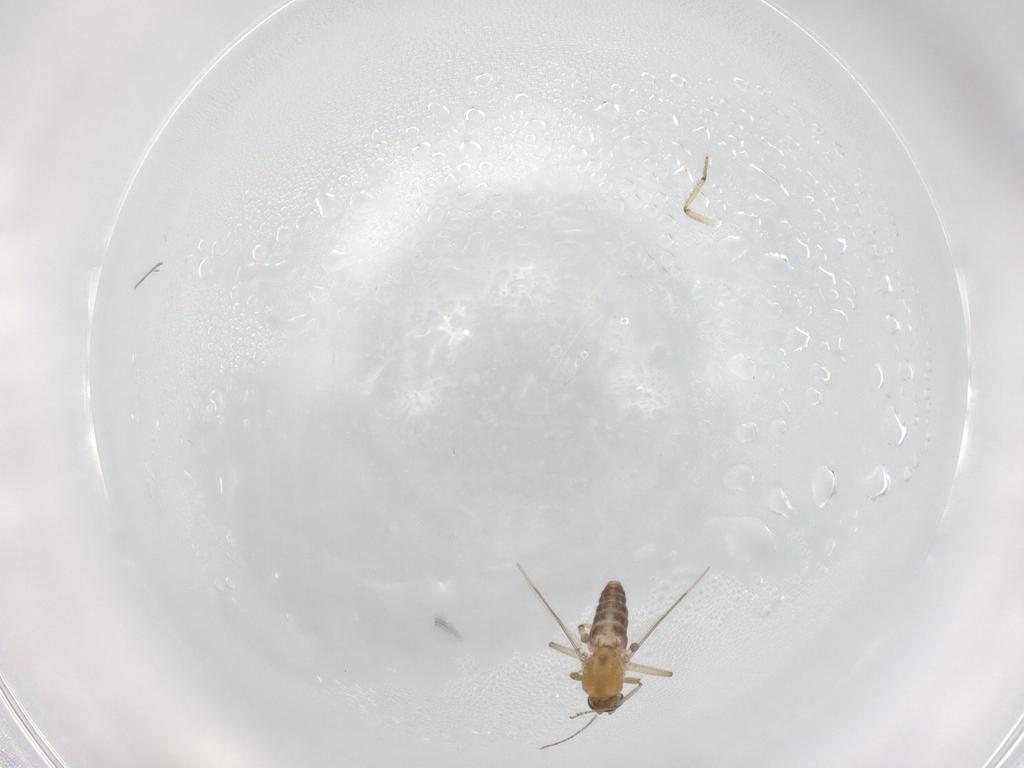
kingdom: Animalia
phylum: Arthropoda
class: Insecta
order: Diptera
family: Ceratopogonidae
